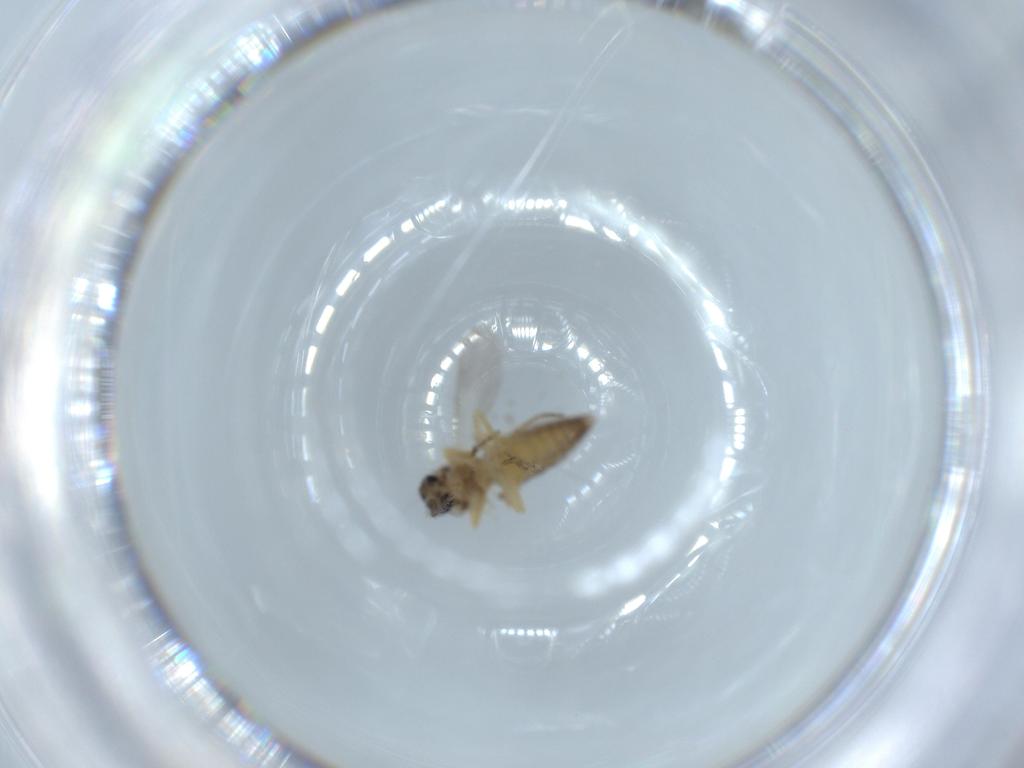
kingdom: Animalia
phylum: Arthropoda
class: Insecta
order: Diptera
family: Ceratopogonidae
